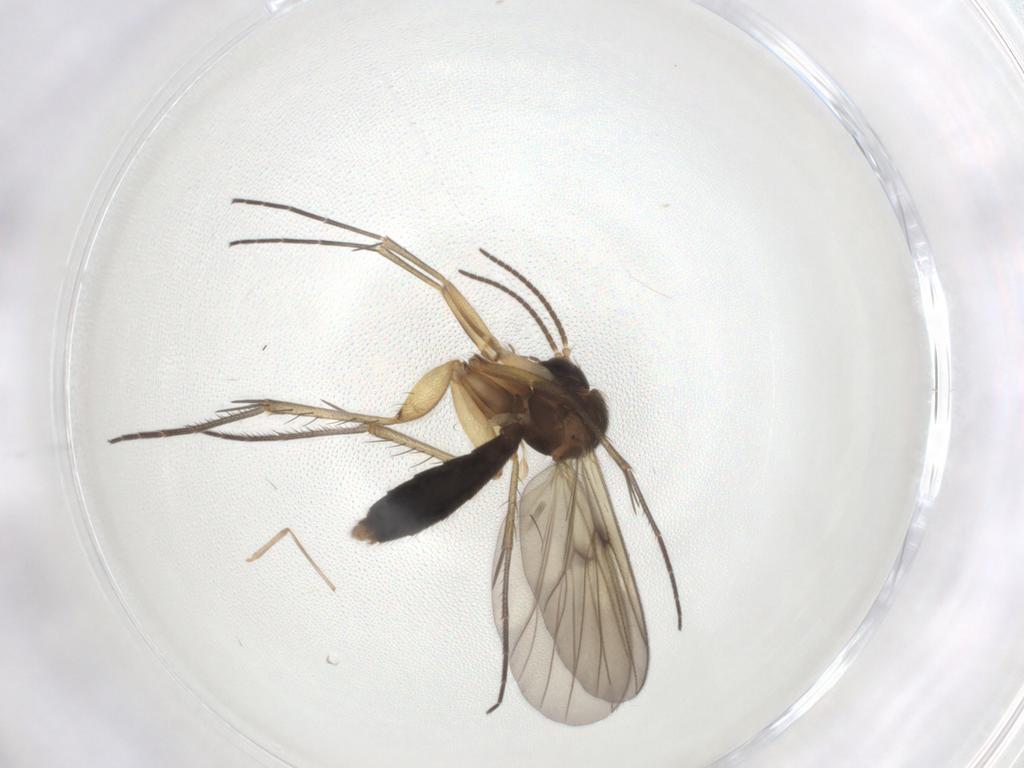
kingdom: Animalia
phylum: Arthropoda
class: Insecta
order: Diptera
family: Mycetophilidae
